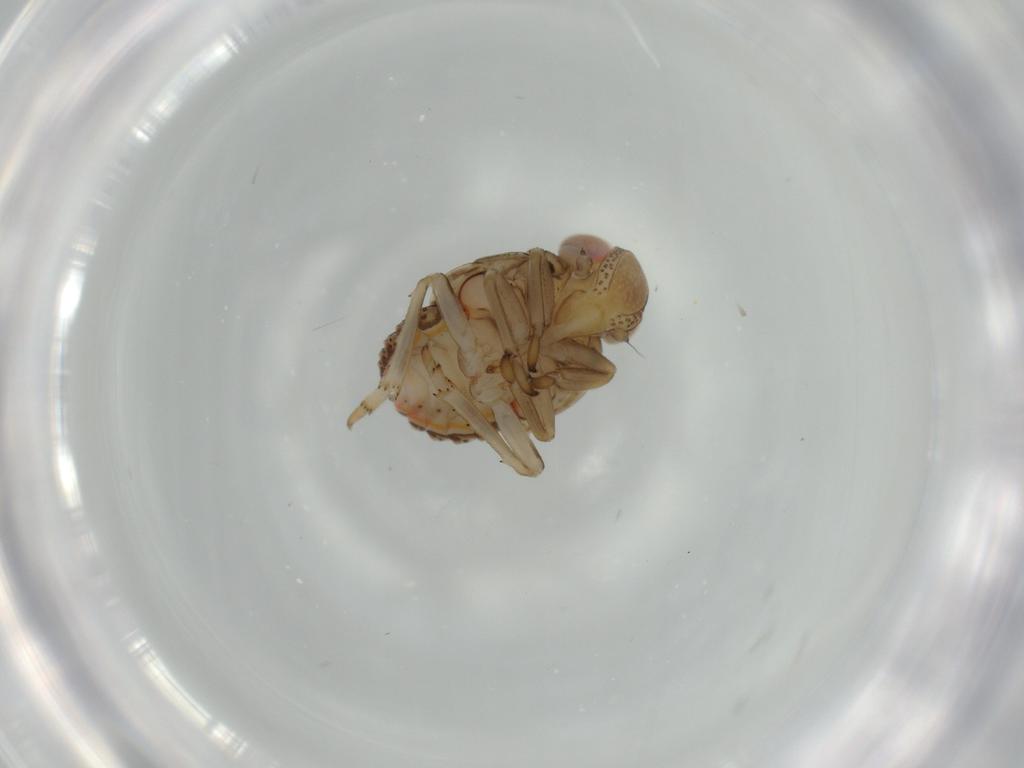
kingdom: Animalia
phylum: Arthropoda
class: Insecta
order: Hemiptera
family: Issidae
